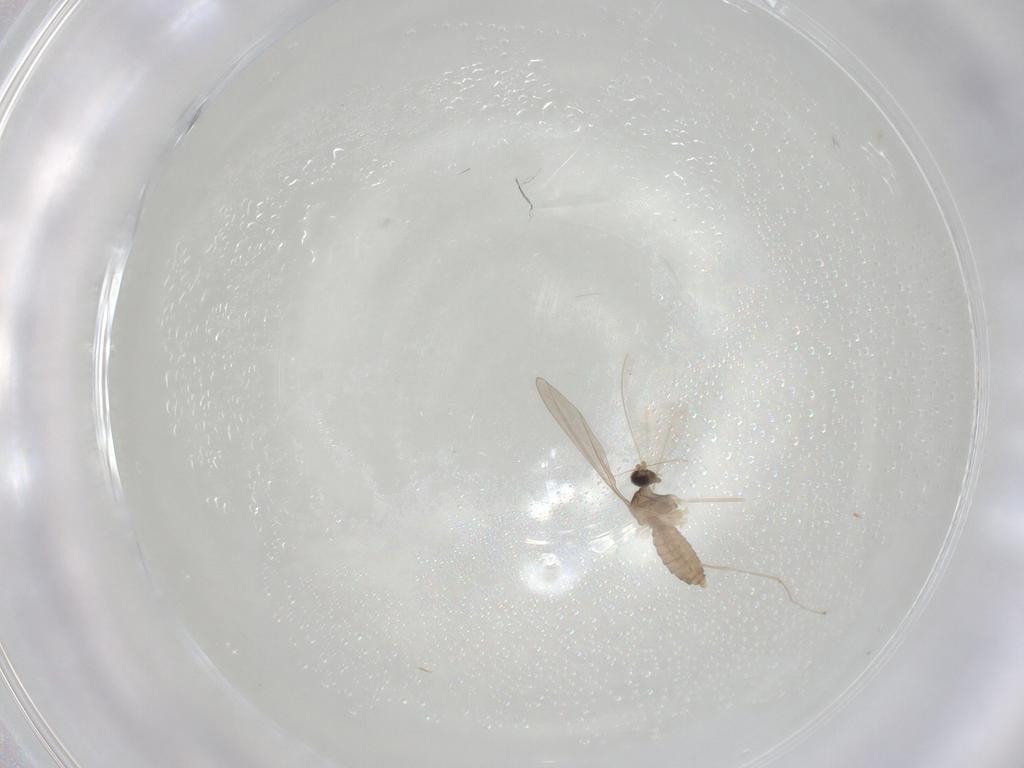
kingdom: Animalia
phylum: Arthropoda
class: Insecta
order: Diptera
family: Cecidomyiidae
